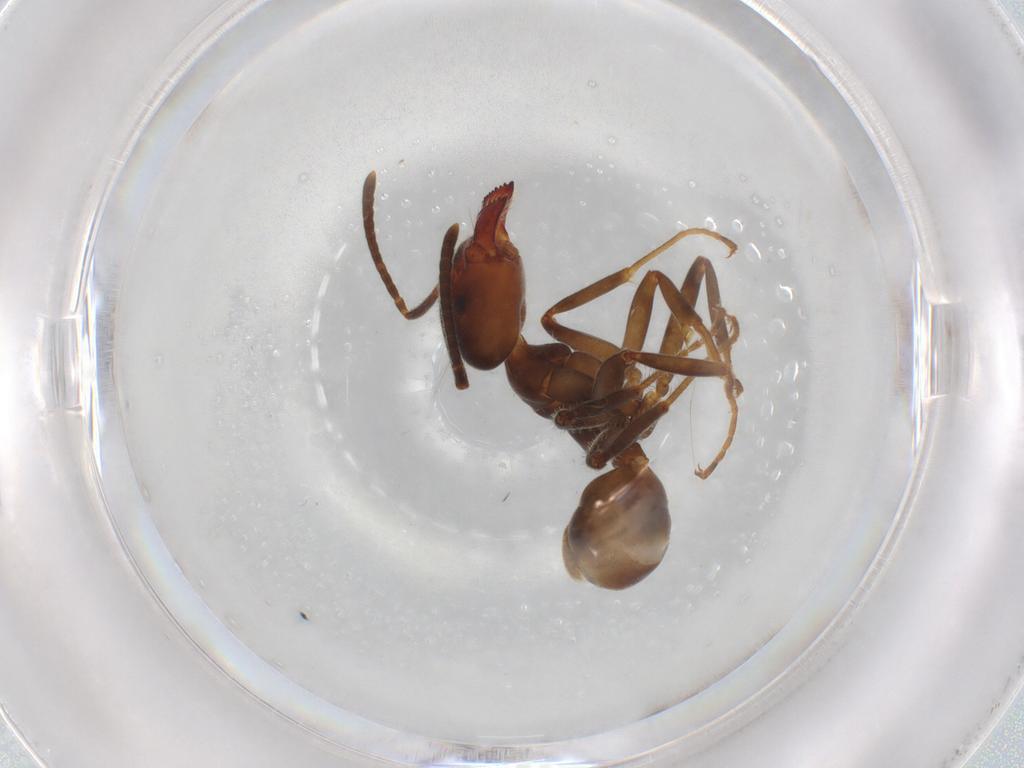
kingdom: Animalia
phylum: Arthropoda
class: Insecta
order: Hymenoptera
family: Formicidae
